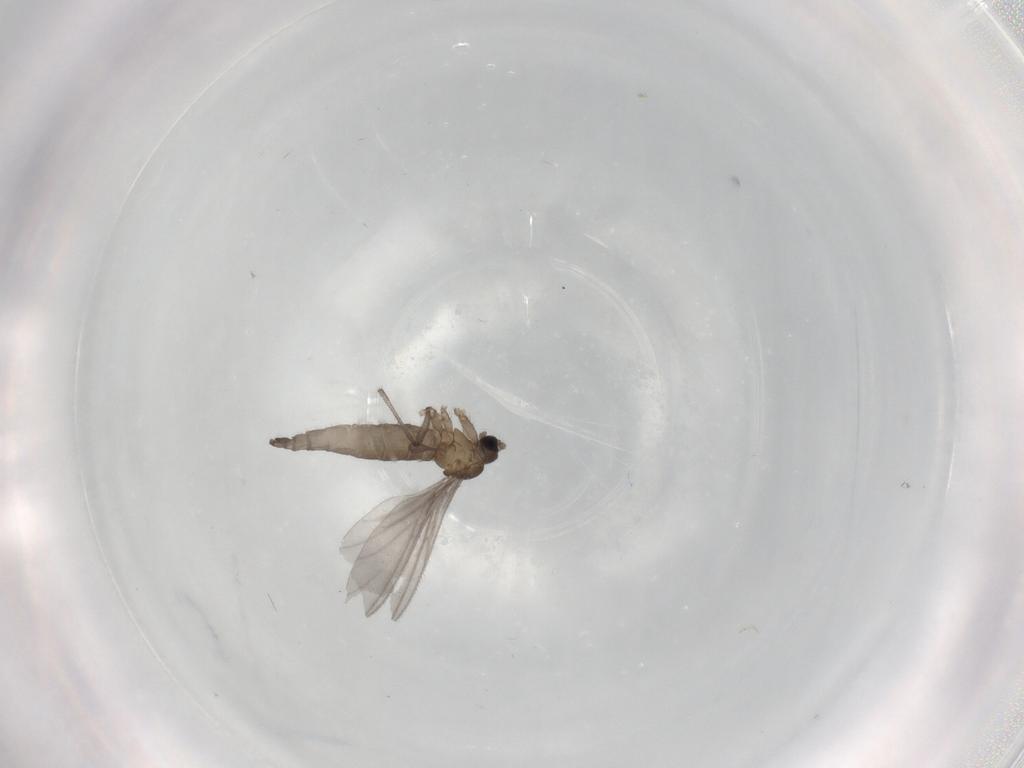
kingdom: Animalia
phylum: Arthropoda
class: Insecta
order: Diptera
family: Sciaridae
